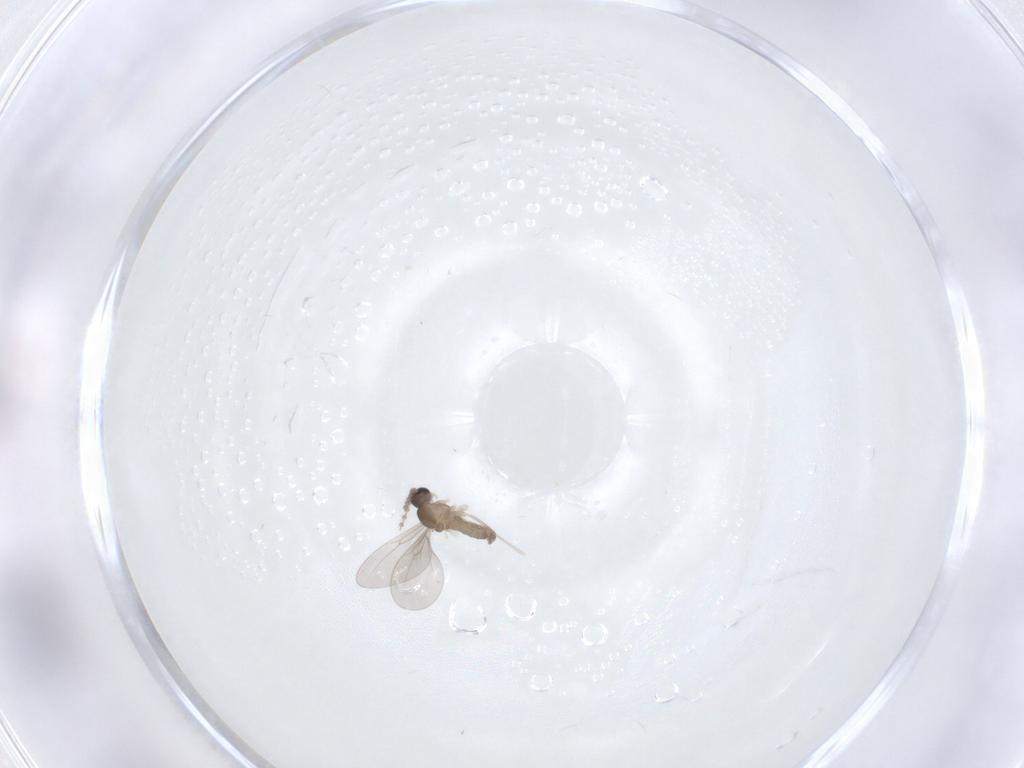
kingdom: Animalia
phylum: Arthropoda
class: Insecta
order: Diptera
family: Cecidomyiidae
